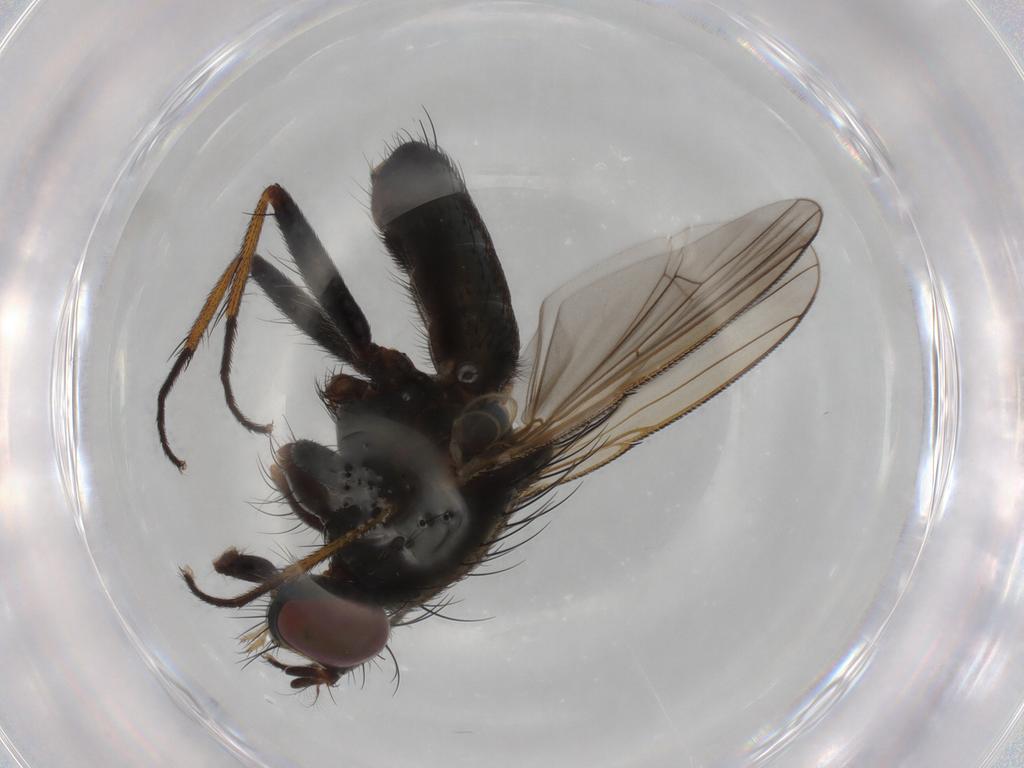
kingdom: Animalia
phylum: Arthropoda
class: Insecta
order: Diptera
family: Muscidae
